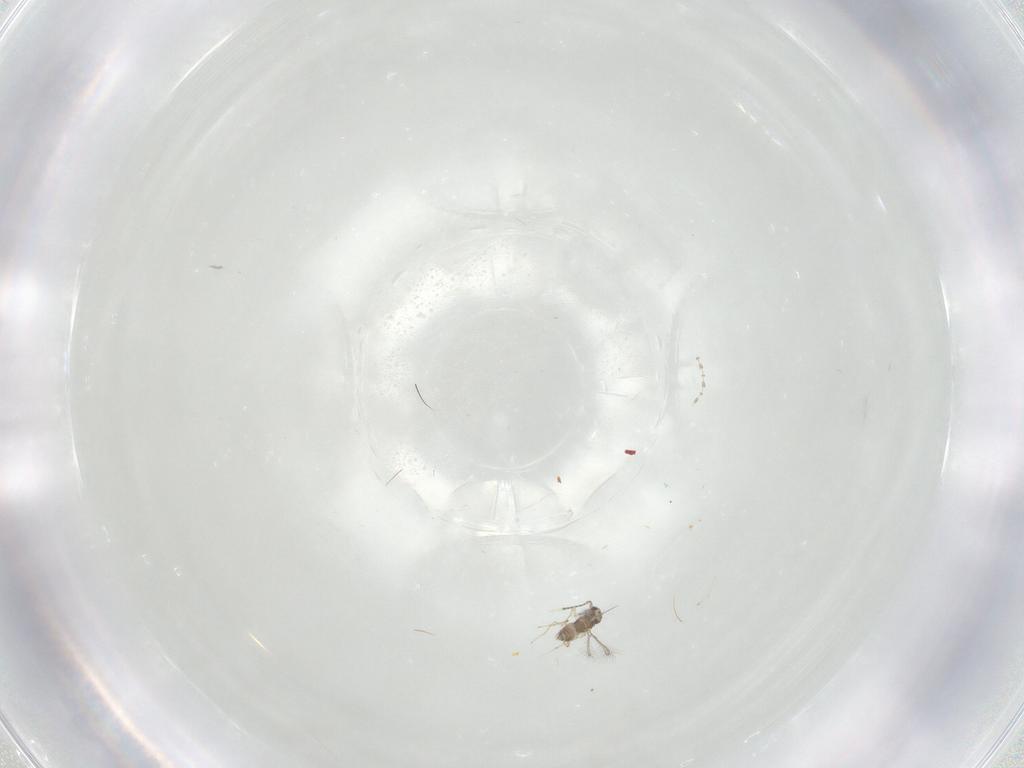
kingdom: Animalia
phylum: Arthropoda
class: Insecta
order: Diptera
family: Cecidomyiidae
